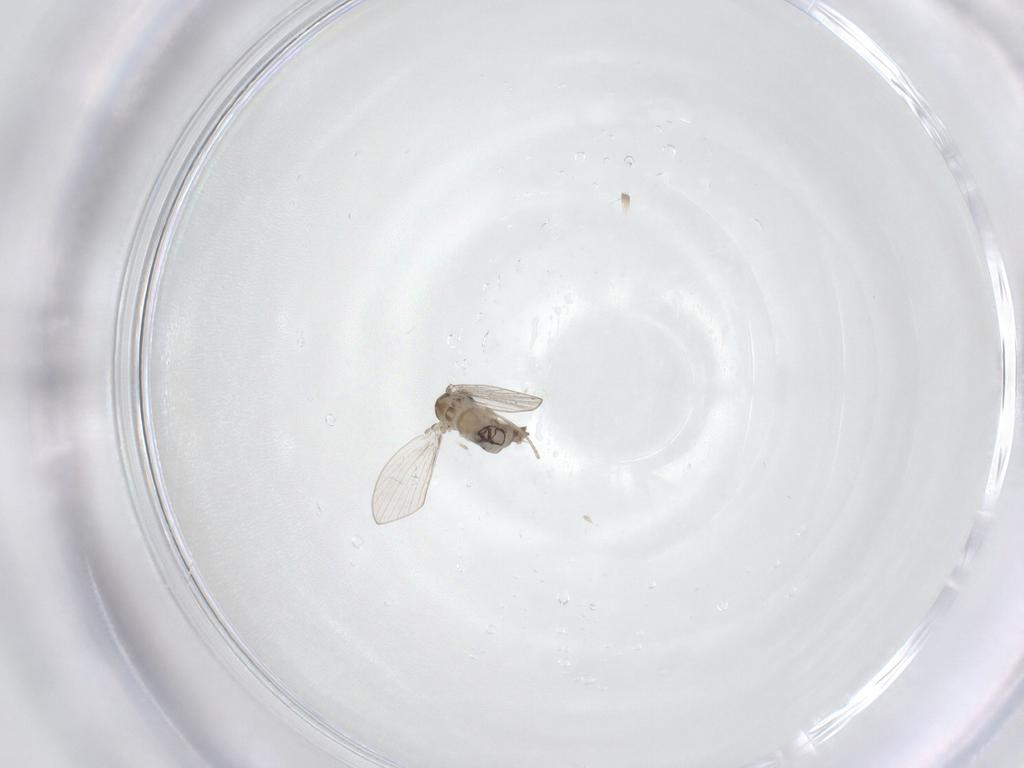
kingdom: Animalia
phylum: Arthropoda
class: Insecta
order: Diptera
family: Psychodidae
